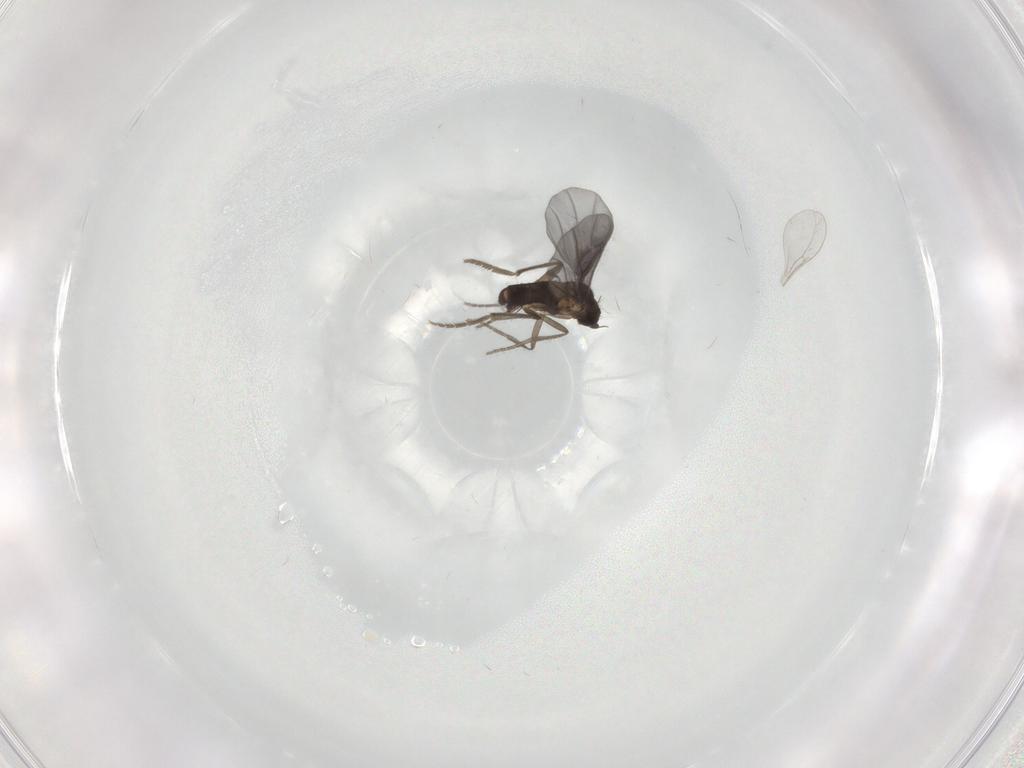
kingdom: Animalia
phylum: Arthropoda
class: Insecta
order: Diptera
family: Phoridae
